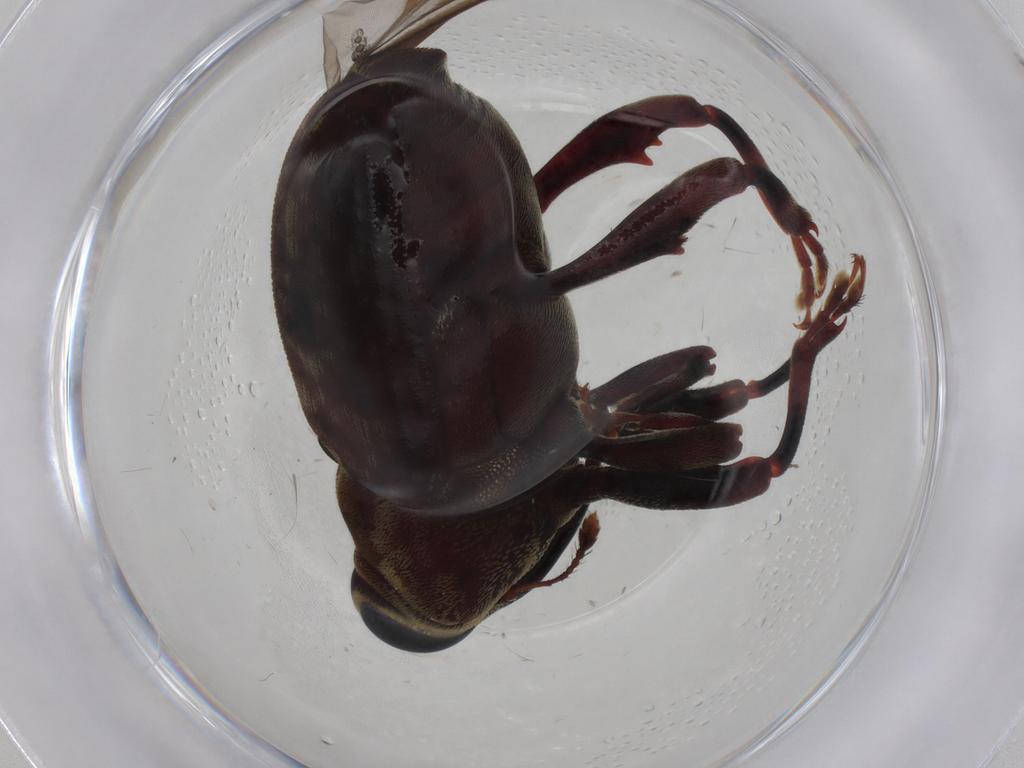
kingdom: Animalia
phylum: Arthropoda
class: Insecta
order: Coleoptera
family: Curculionidae
